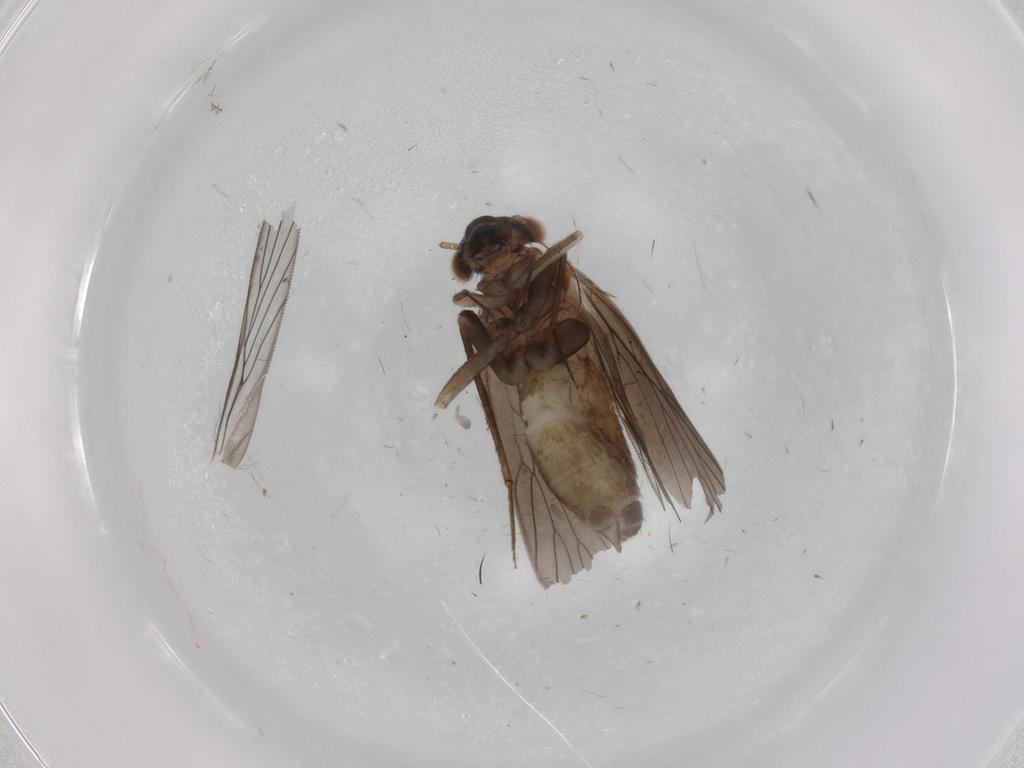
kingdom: Animalia
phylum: Arthropoda
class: Insecta
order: Psocodea
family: Lepidopsocidae
